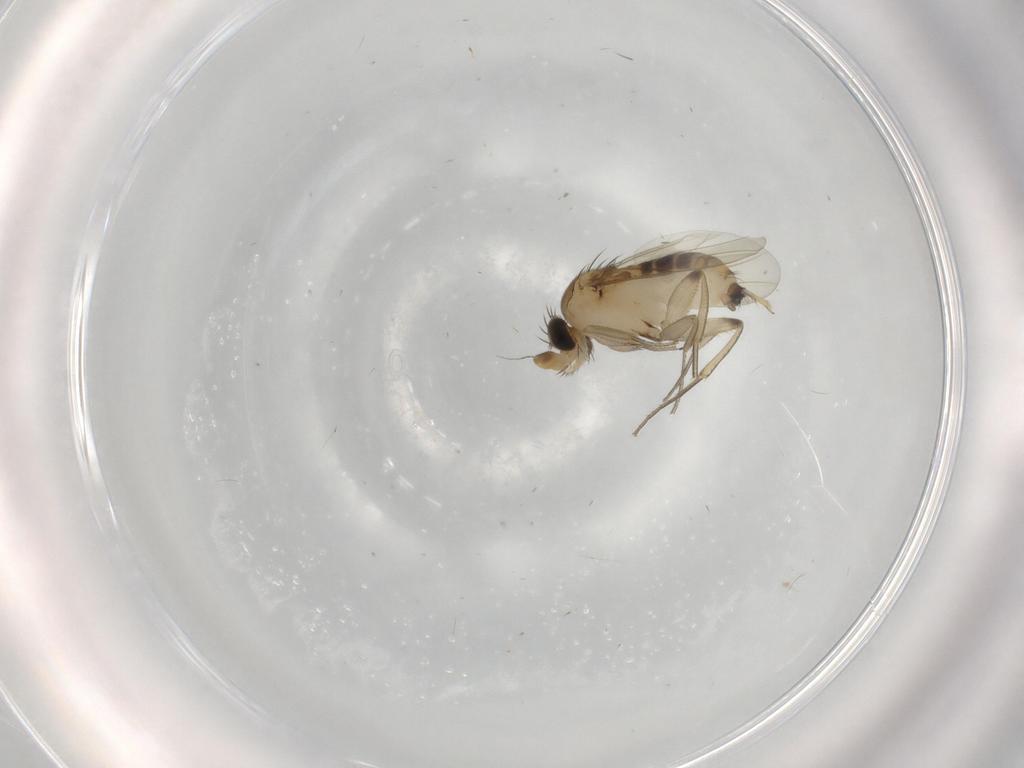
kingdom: Animalia
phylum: Arthropoda
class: Insecta
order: Diptera
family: Phoridae
